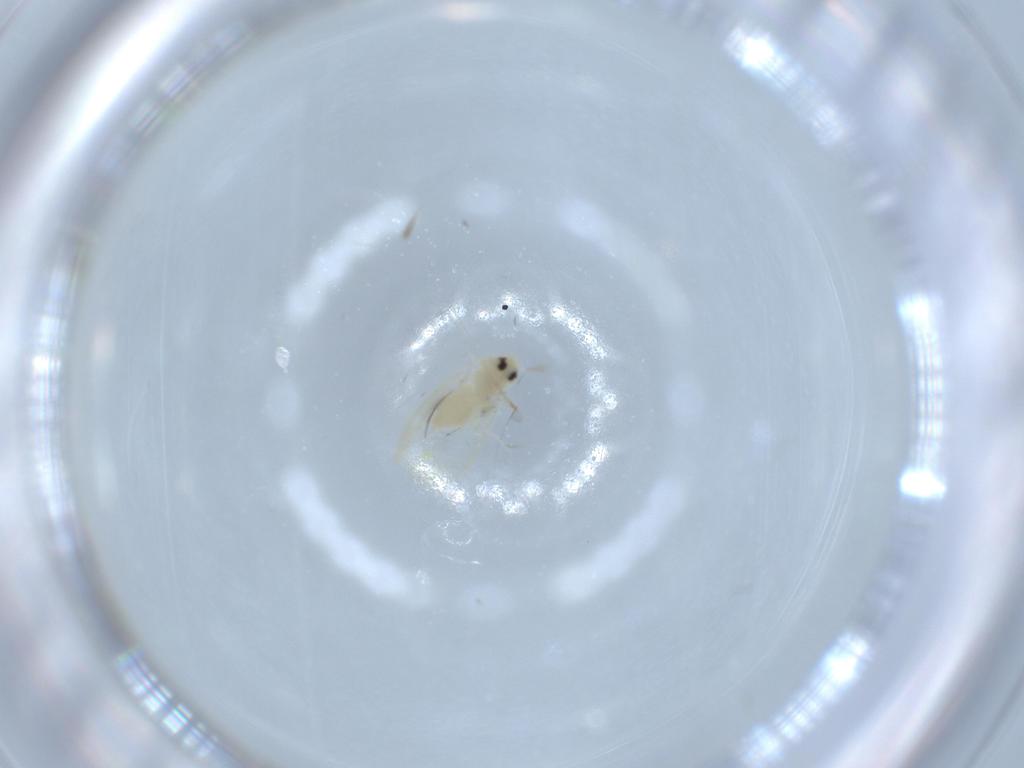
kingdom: Animalia
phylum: Arthropoda
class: Insecta
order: Hemiptera
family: Aleyrodidae
